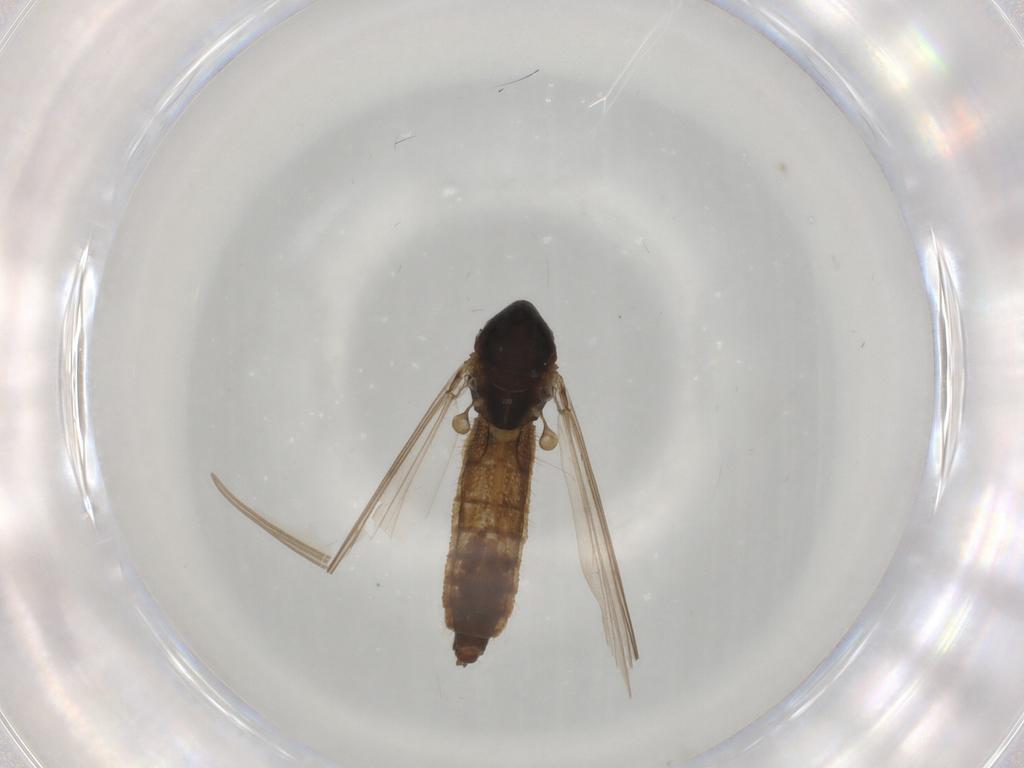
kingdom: Animalia
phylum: Arthropoda
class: Insecta
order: Diptera
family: Chironomidae
